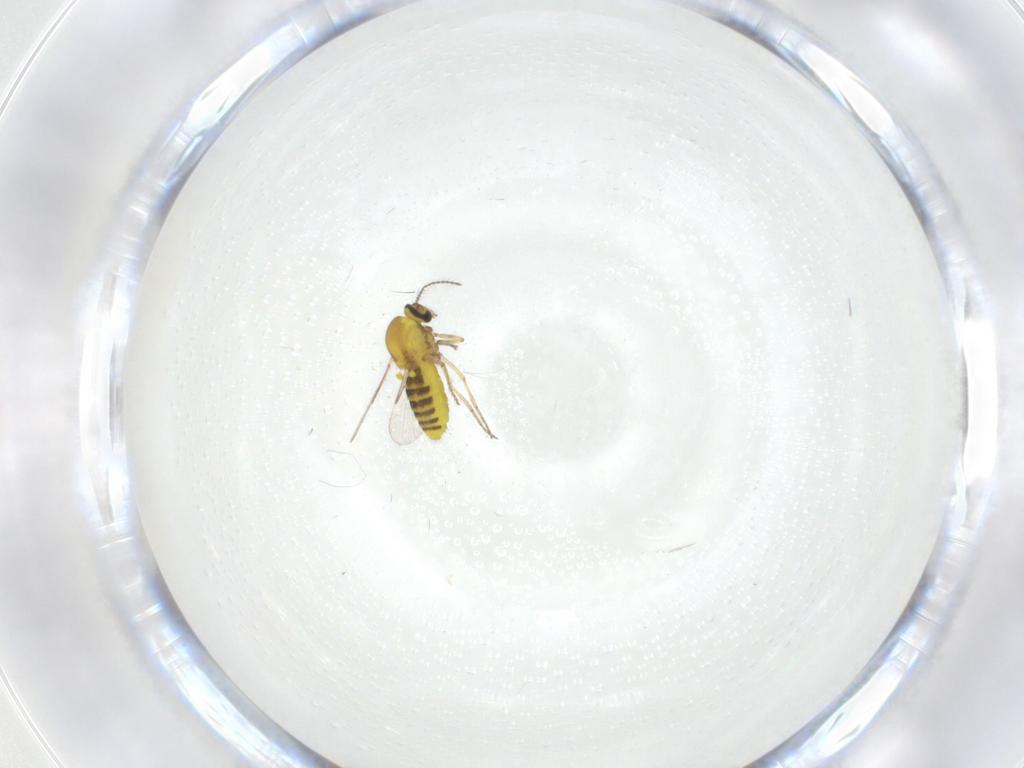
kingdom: Animalia
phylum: Arthropoda
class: Insecta
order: Diptera
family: Ceratopogonidae
